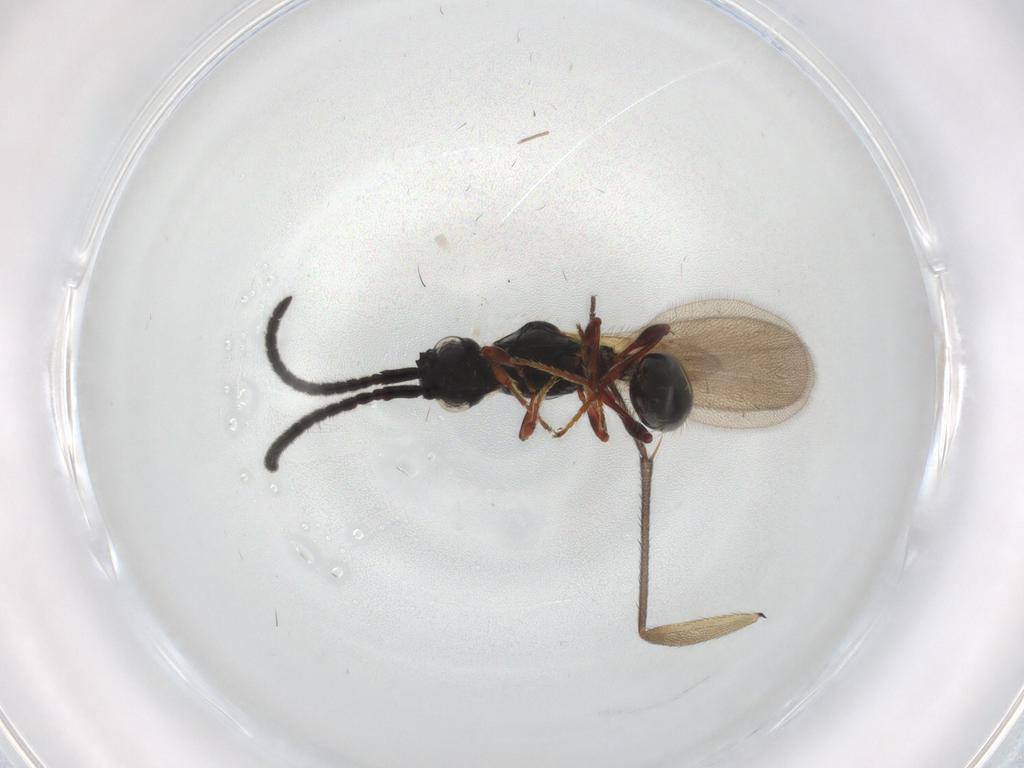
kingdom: Animalia
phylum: Arthropoda
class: Insecta
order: Hymenoptera
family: Diapriidae
